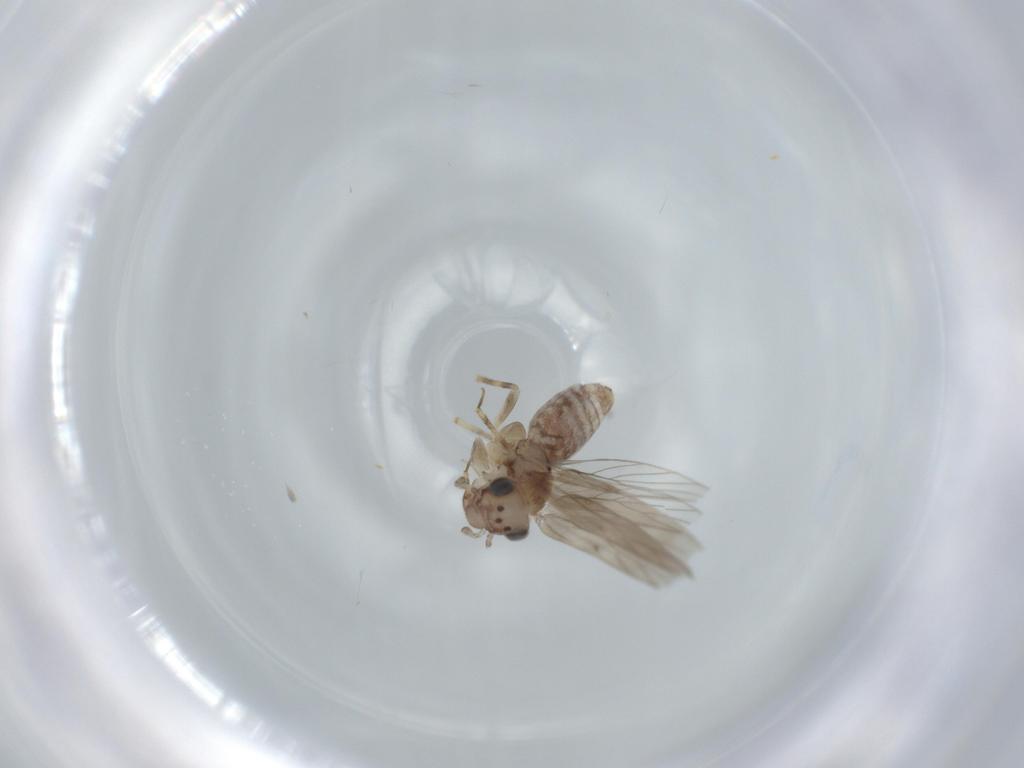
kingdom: Animalia
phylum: Arthropoda
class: Insecta
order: Psocodea
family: Lepidopsocidae
